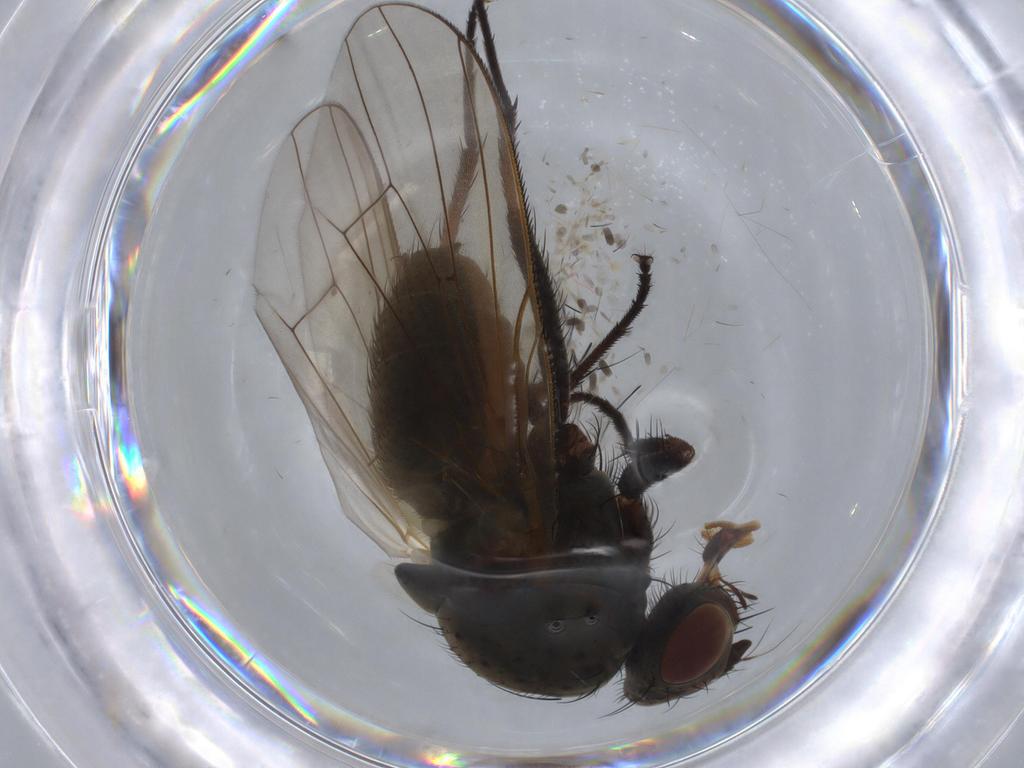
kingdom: Animalia
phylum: Arthropoda
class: Insecta
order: Diptera
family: Anthomyiidae
